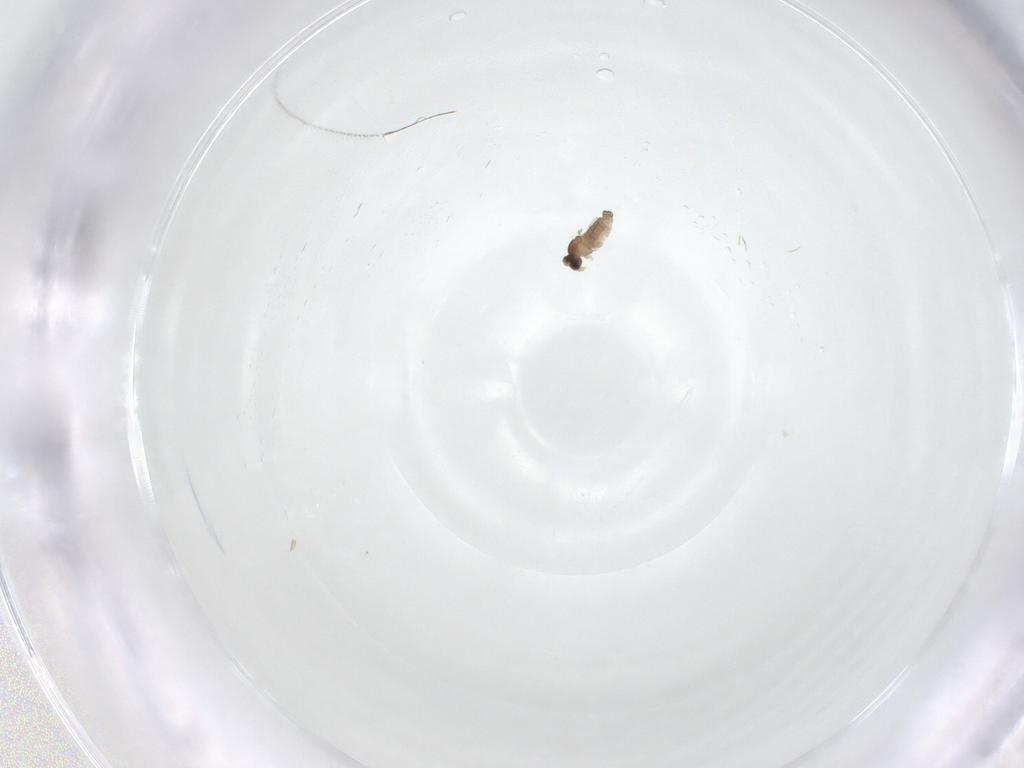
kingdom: Animalia
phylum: Arthropoda
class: Insecta
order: Diptera
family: Cecidomyiidae
